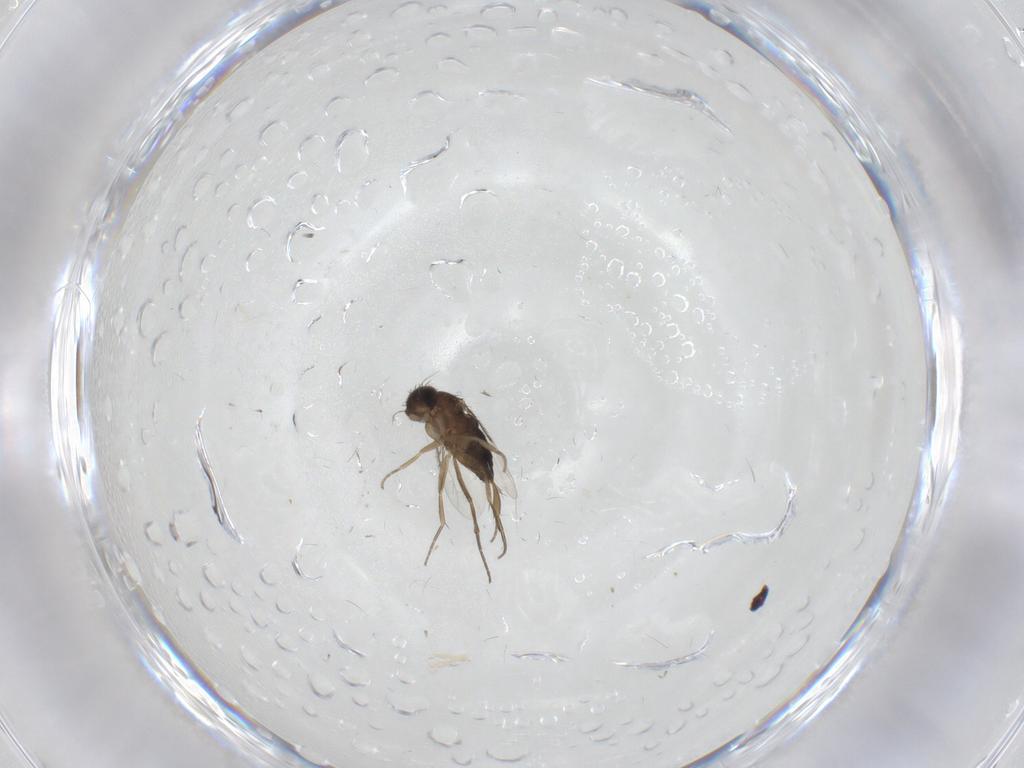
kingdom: Animalia
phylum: Arthropoda
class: Insecta
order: Diptera
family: Phoridae
